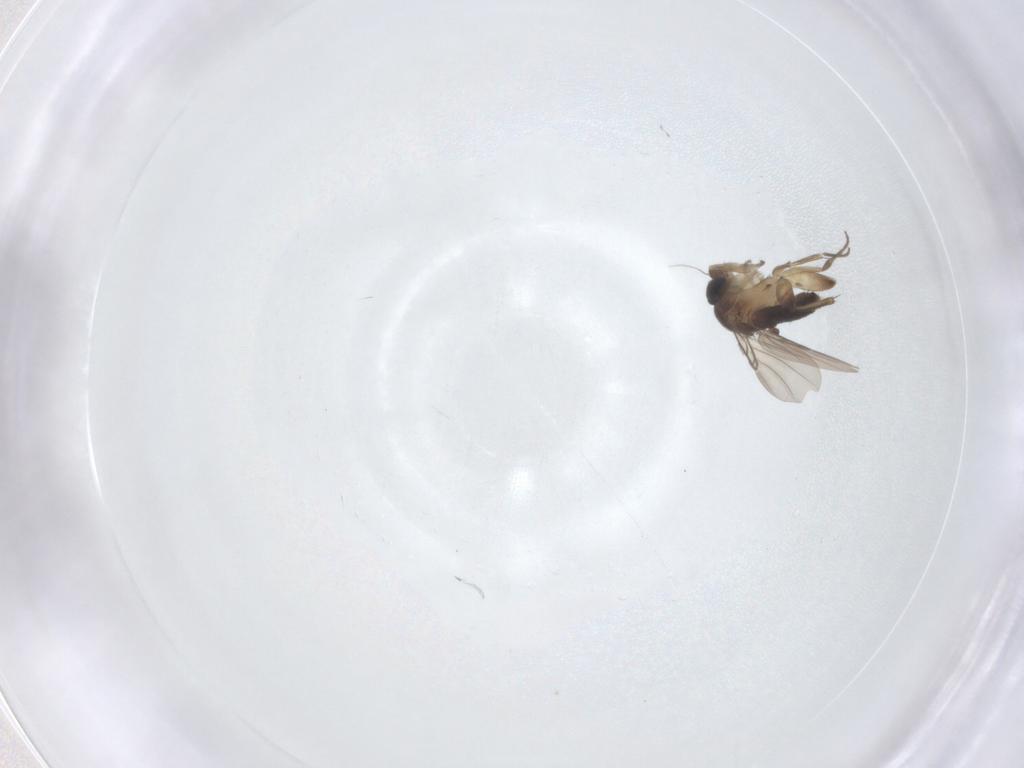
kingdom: Animalia
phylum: Arthropoda
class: Insecta
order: Diptera
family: Phoridae
